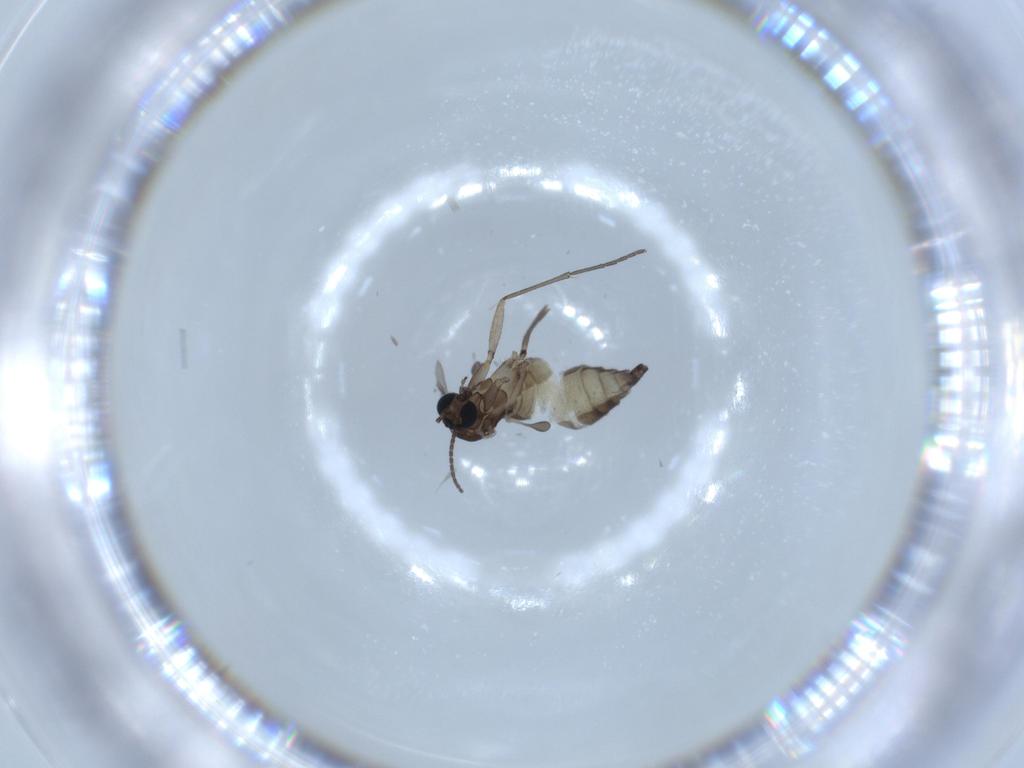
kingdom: Animalia
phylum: Arthropoda
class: Insecta
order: Diptera
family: Sciaridae
